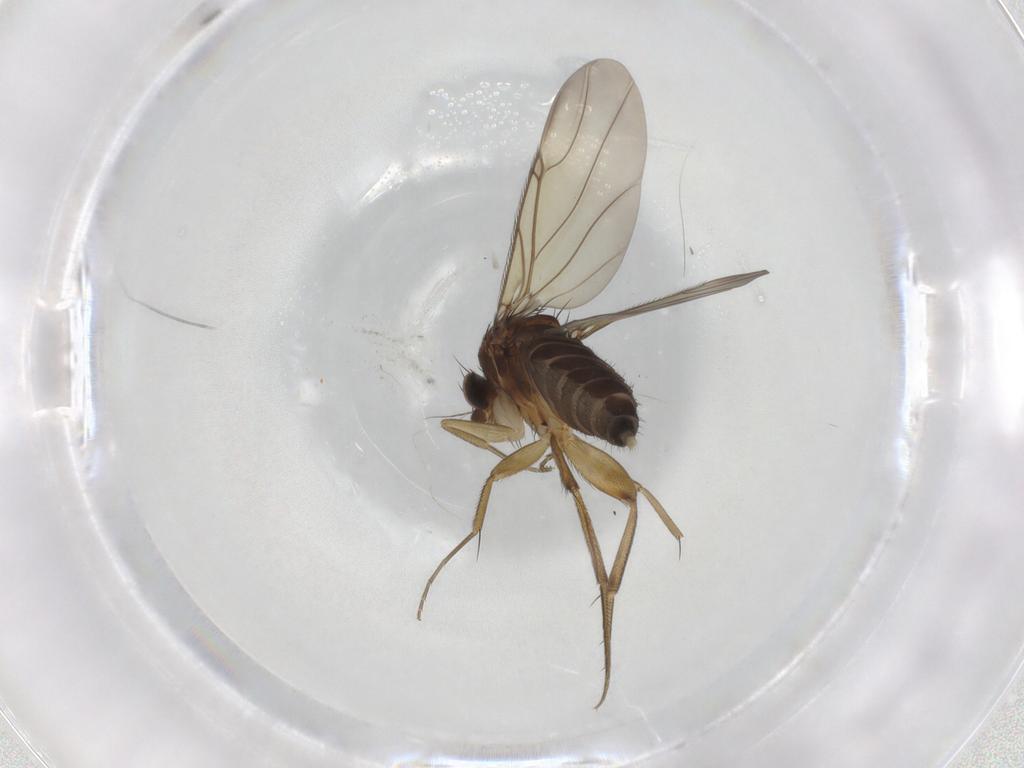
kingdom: Animalia
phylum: Arthropoda
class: Insecta
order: Diptera
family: Phoridae
